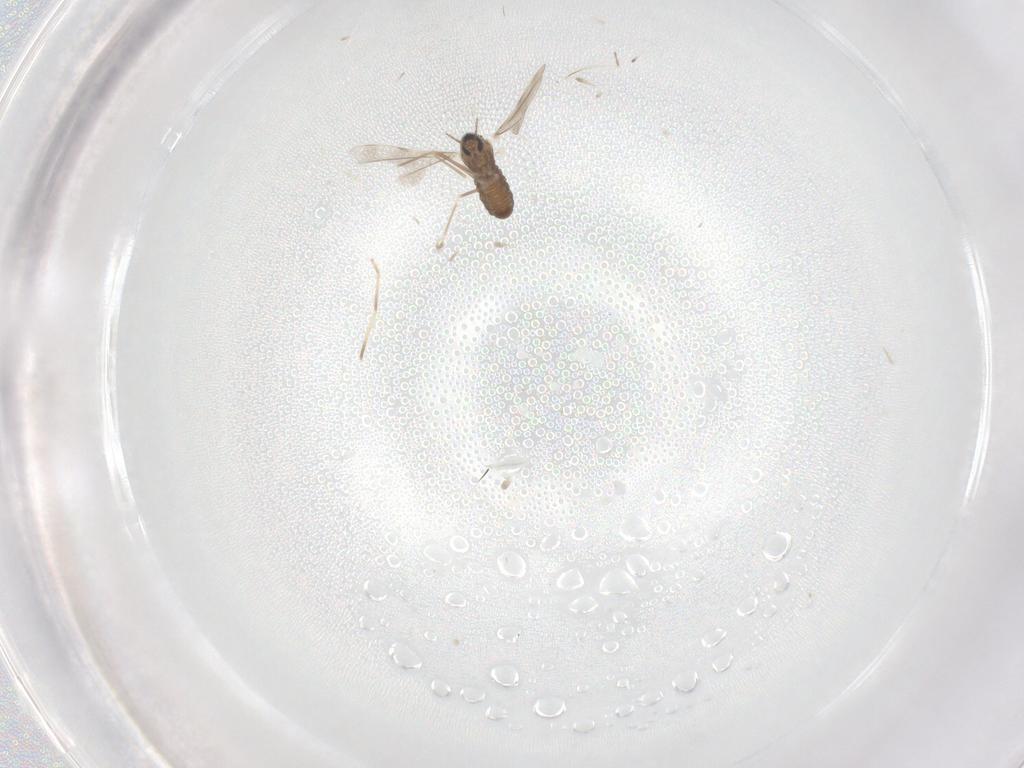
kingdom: Animalia
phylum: Arthropoda
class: Insecta
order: Diptera
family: Cecidomyiidae
